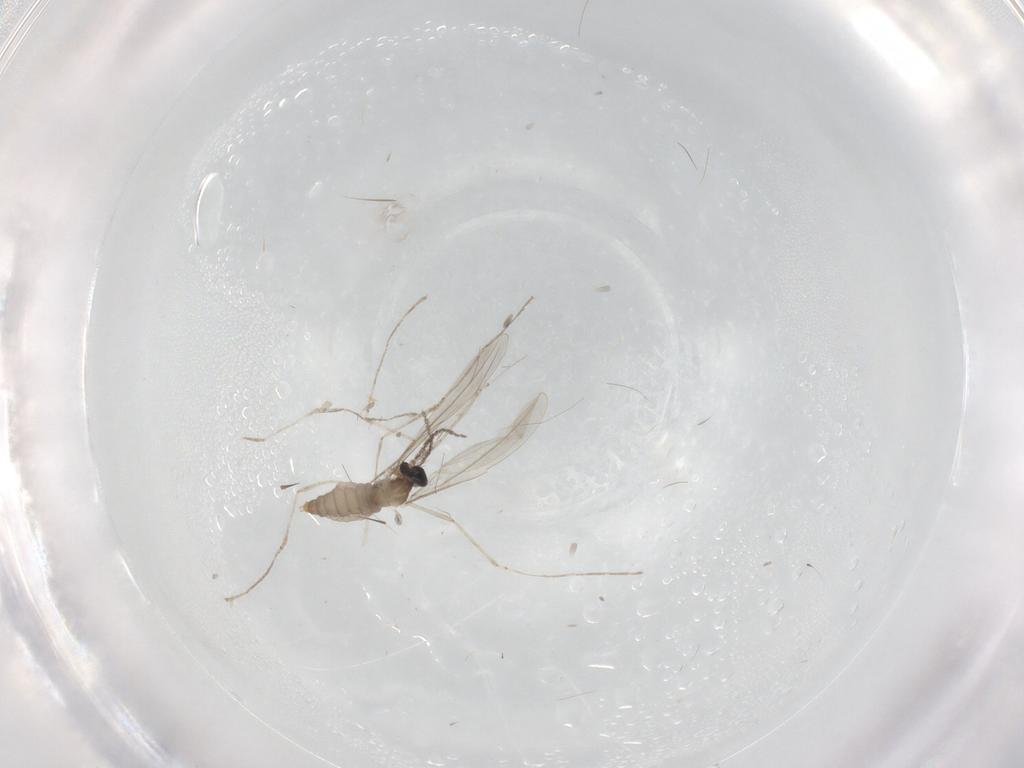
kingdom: Animalia
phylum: Arthropoda
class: Insecta
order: Diptera
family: Cecidomyiidae
